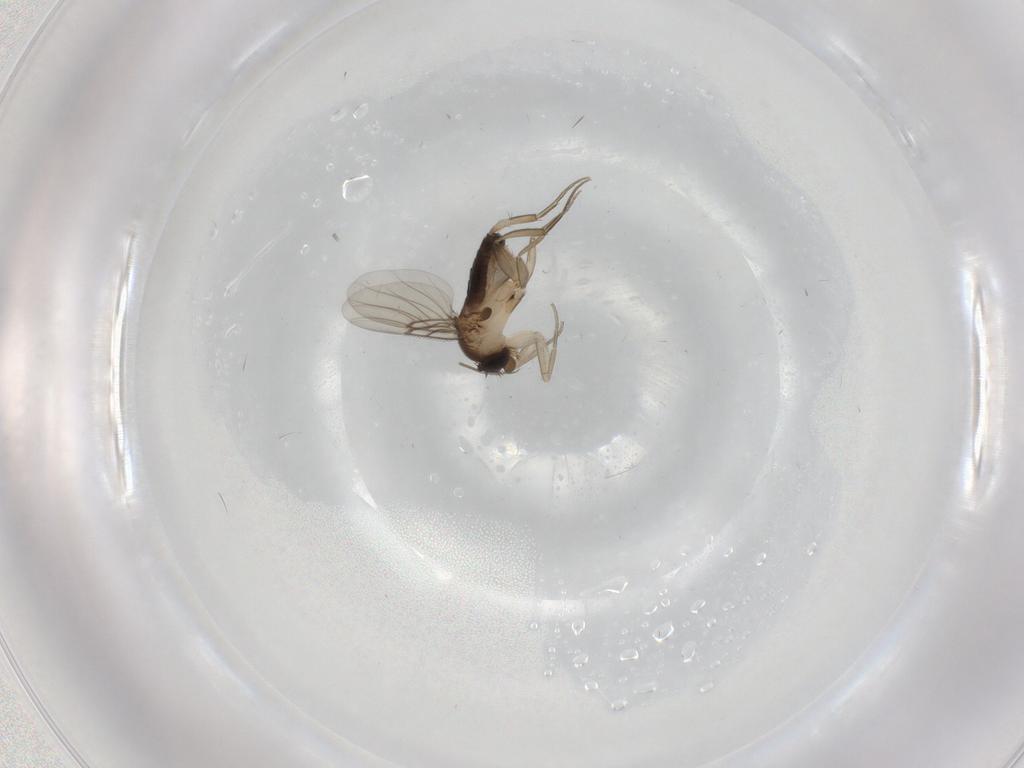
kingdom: Animalia
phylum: Arthropoda
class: Insecta
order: Diptera
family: Phoridae
